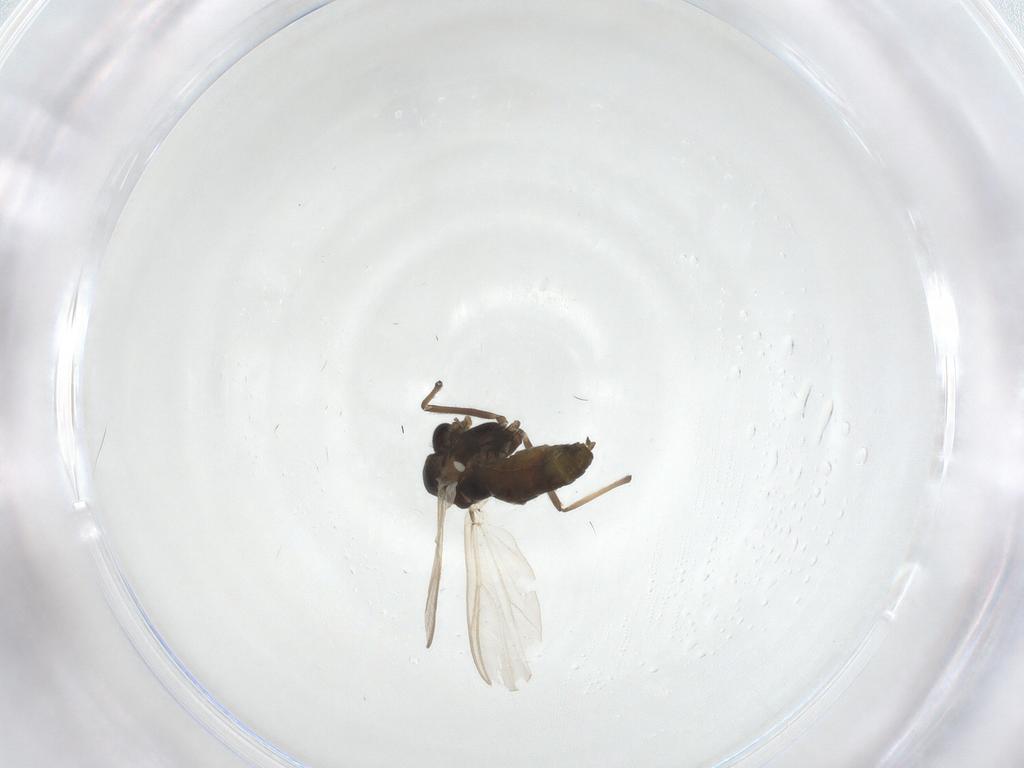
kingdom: Animalia
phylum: Arthropoda
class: Insecta
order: Diptera
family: Chironomidae
